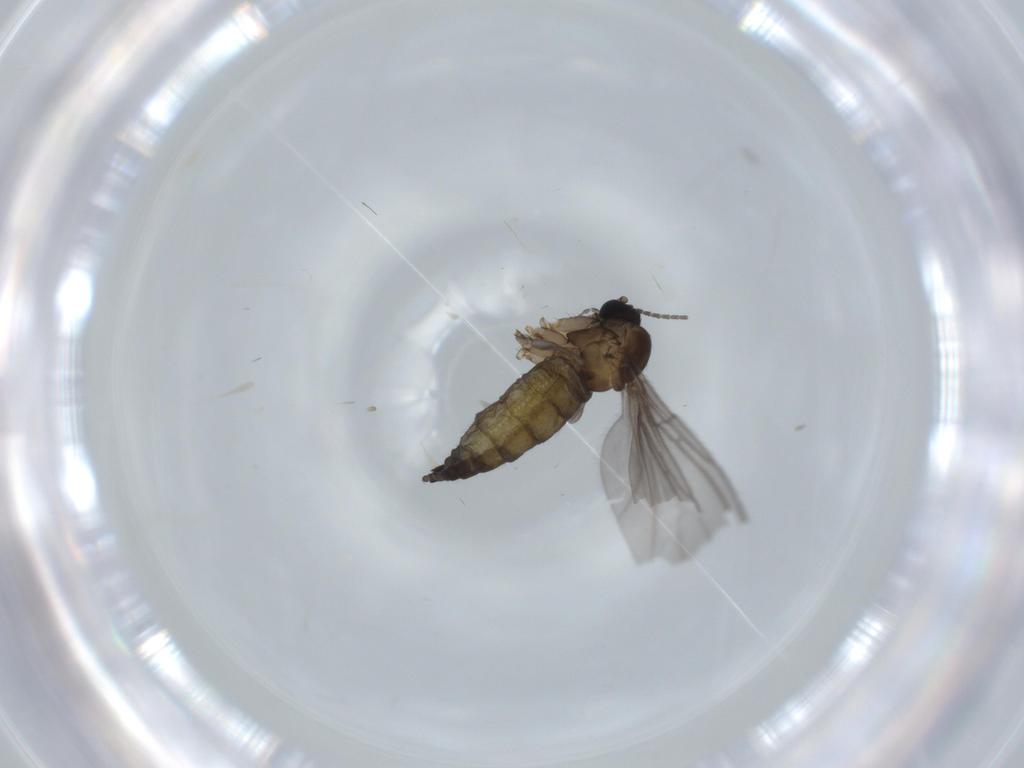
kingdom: Animalia
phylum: Arthropoda
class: Insecta
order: Diptera
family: Sciaridae
